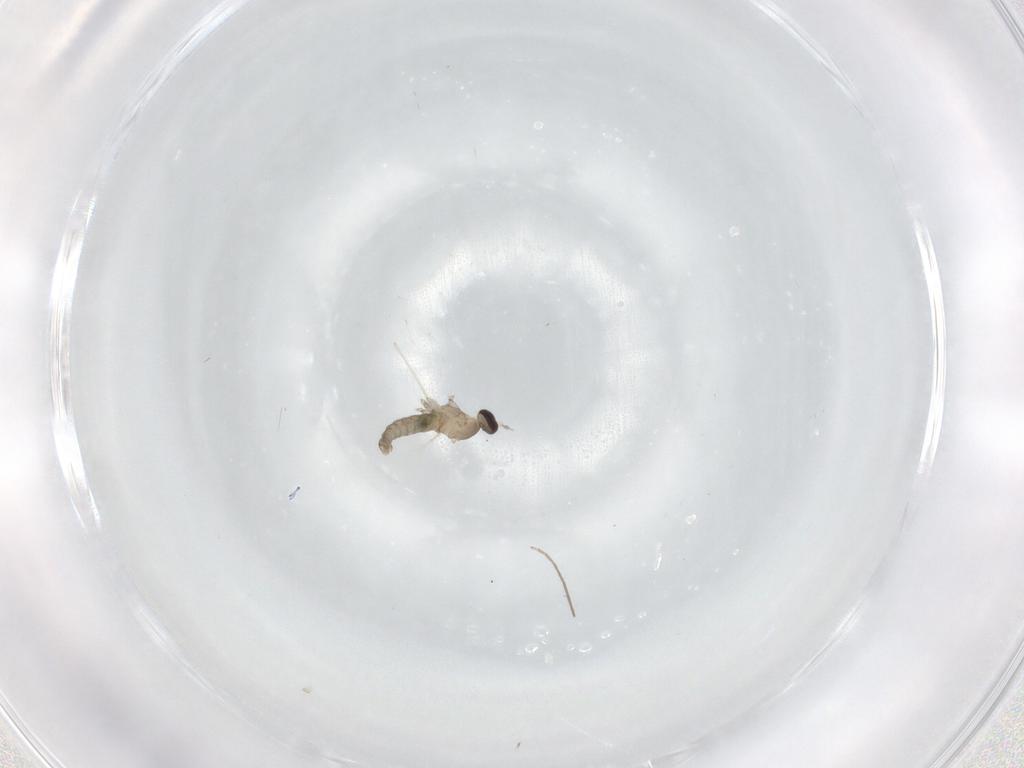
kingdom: Animalia
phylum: Arthropoda
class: Insecta
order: Diptera
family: Chironomidae
